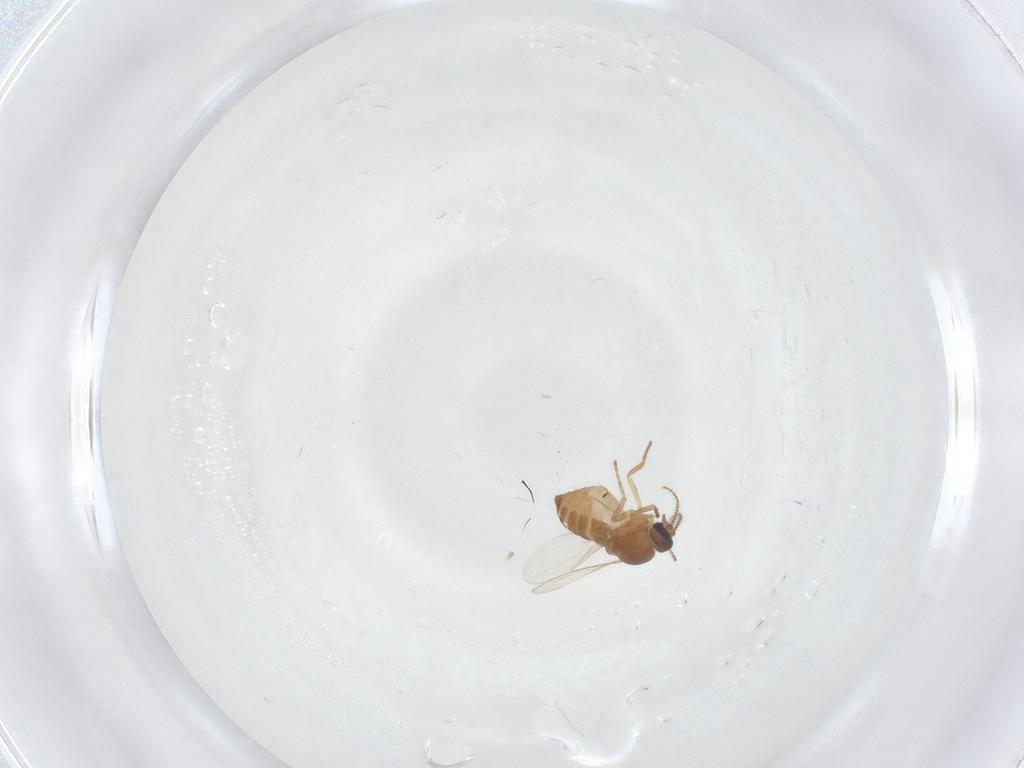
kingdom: Animalia
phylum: Arthropoda
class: Insecta
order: Diptera
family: Ceratopogonidae
